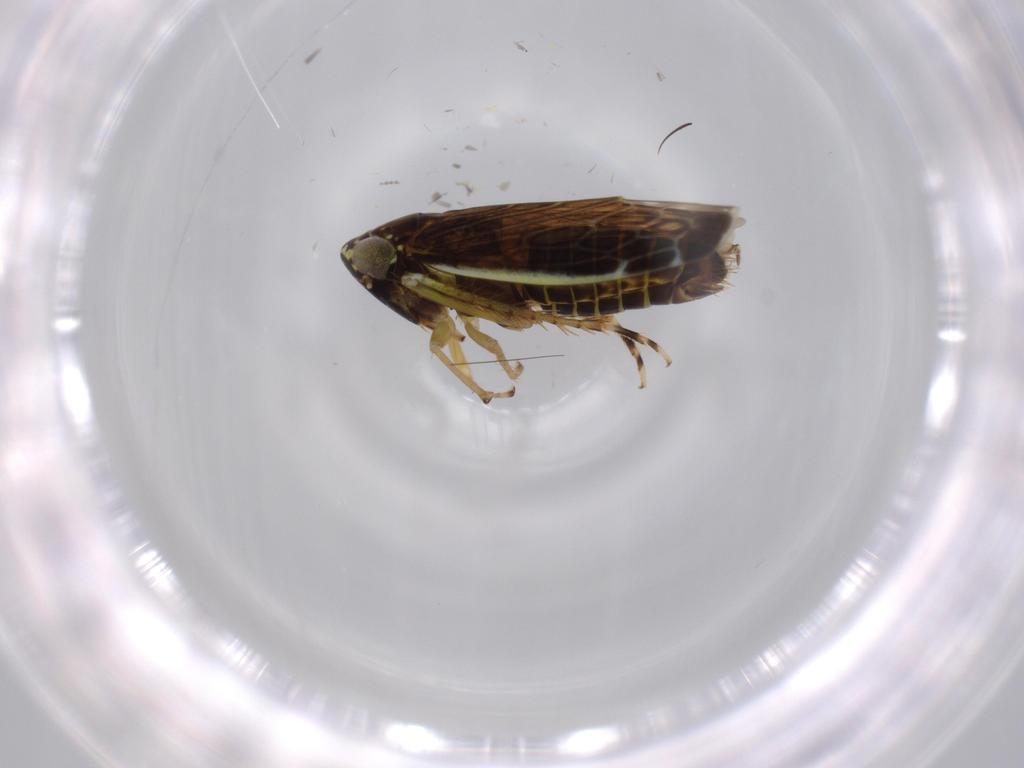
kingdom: Animalia
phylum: Arthropoda
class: Insecta
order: Hemiptera
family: Cicadellidae
